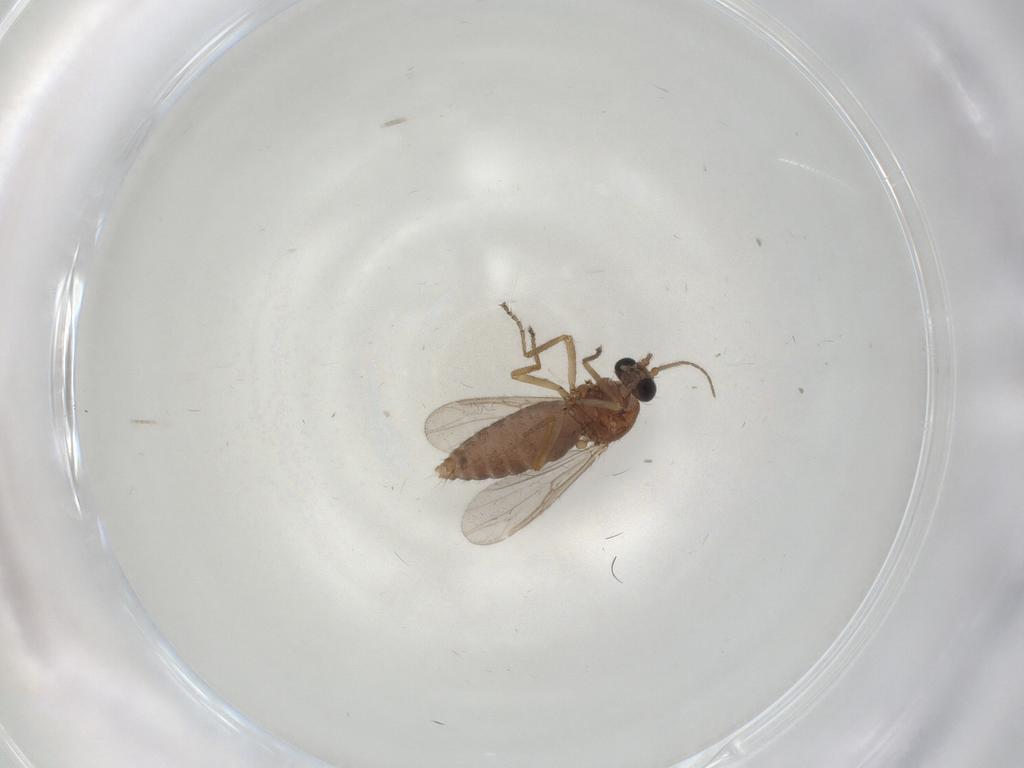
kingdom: Animalia
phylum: Arthropoda
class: Insecta
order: Diptera
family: Ceratopogonidae
